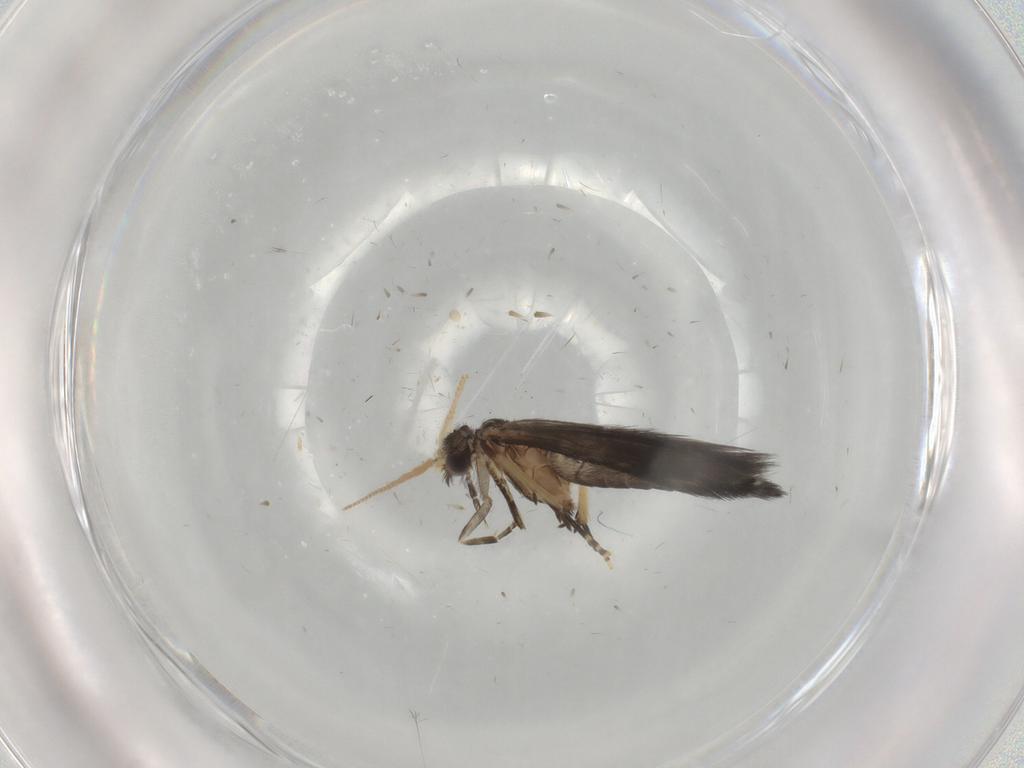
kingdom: Animalia
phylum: Arthropoda
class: Insecta
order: Trichoptera
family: Hydroptilidae
